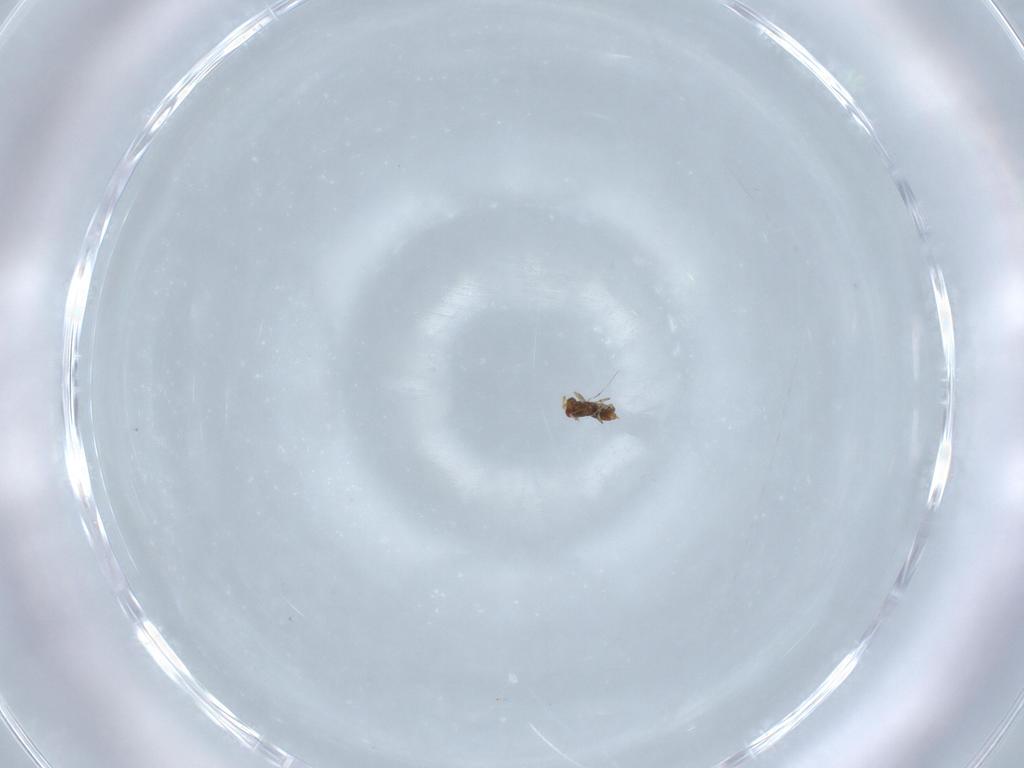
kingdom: Animalia
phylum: Arthropoda
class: Insecta
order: Hymenoptera
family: Trichogrammatidae
